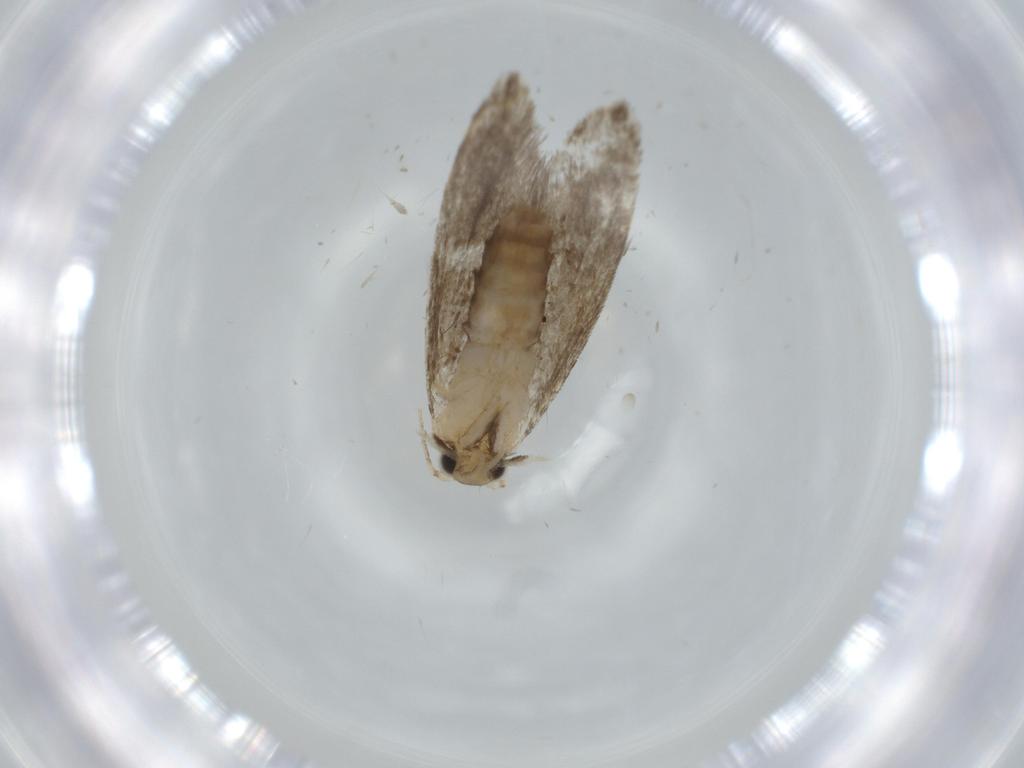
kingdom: Animalia
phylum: Arthropoda
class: Insecta
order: Lepidoptera
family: Tineidae
